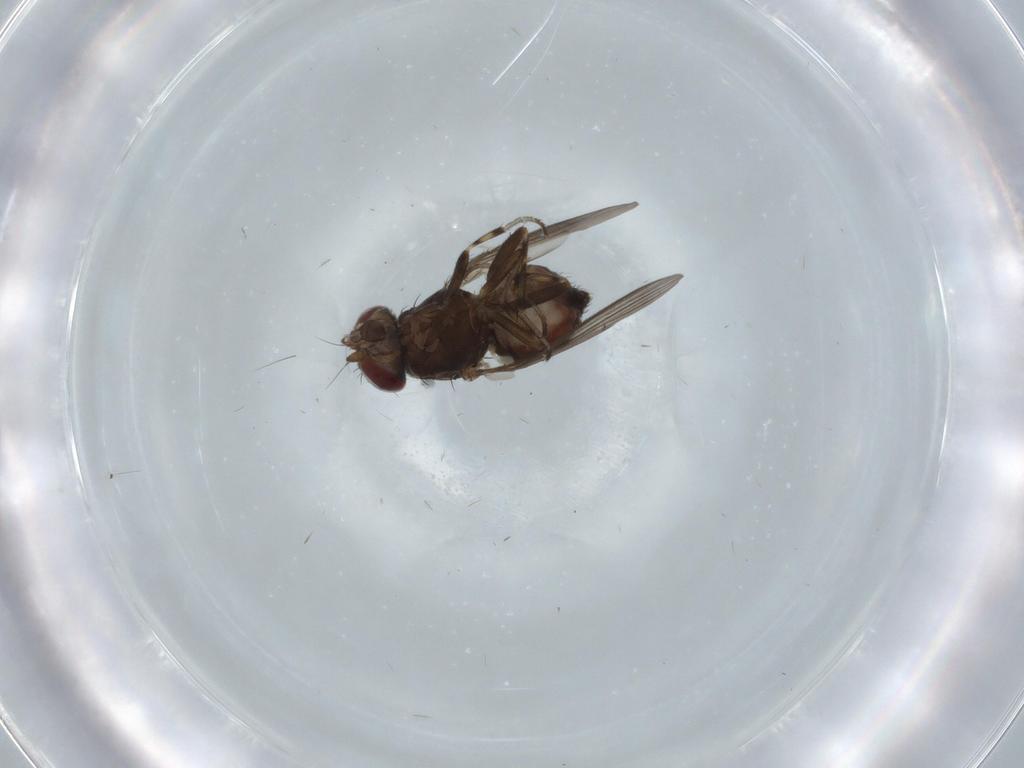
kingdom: Animalia
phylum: Arthropoda
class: Insecta
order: Diptera
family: Heleomyzidae
